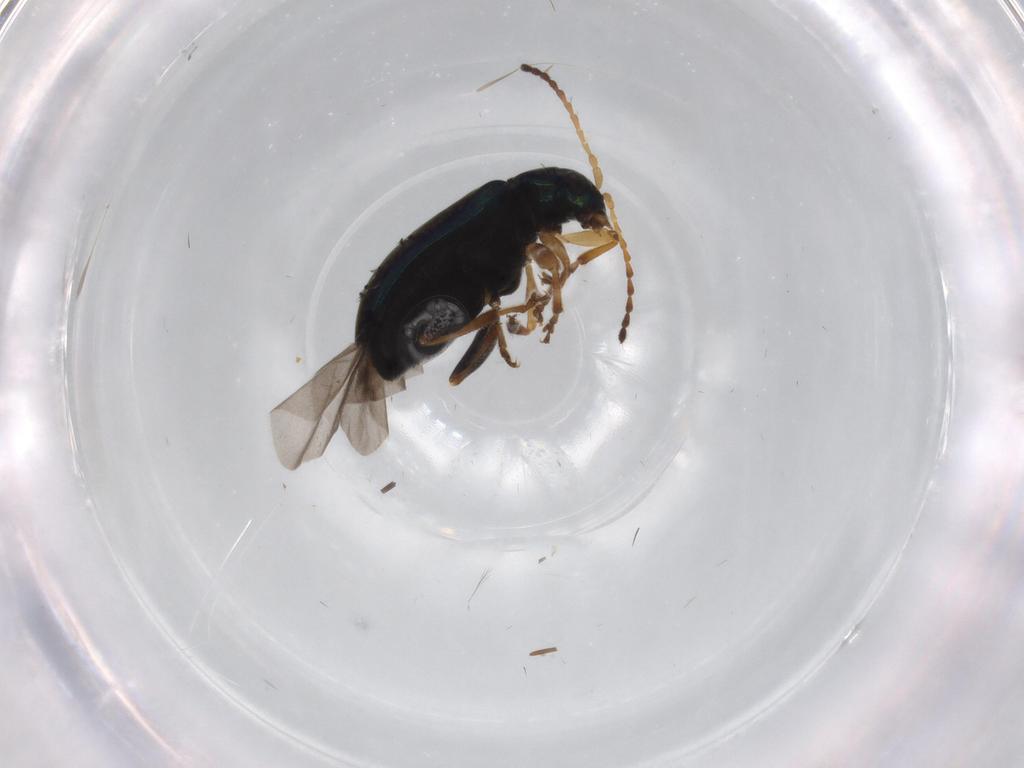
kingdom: Animalia
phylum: Arthropoda
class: Insecta
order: Coleoptera
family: Chrysomelidae
